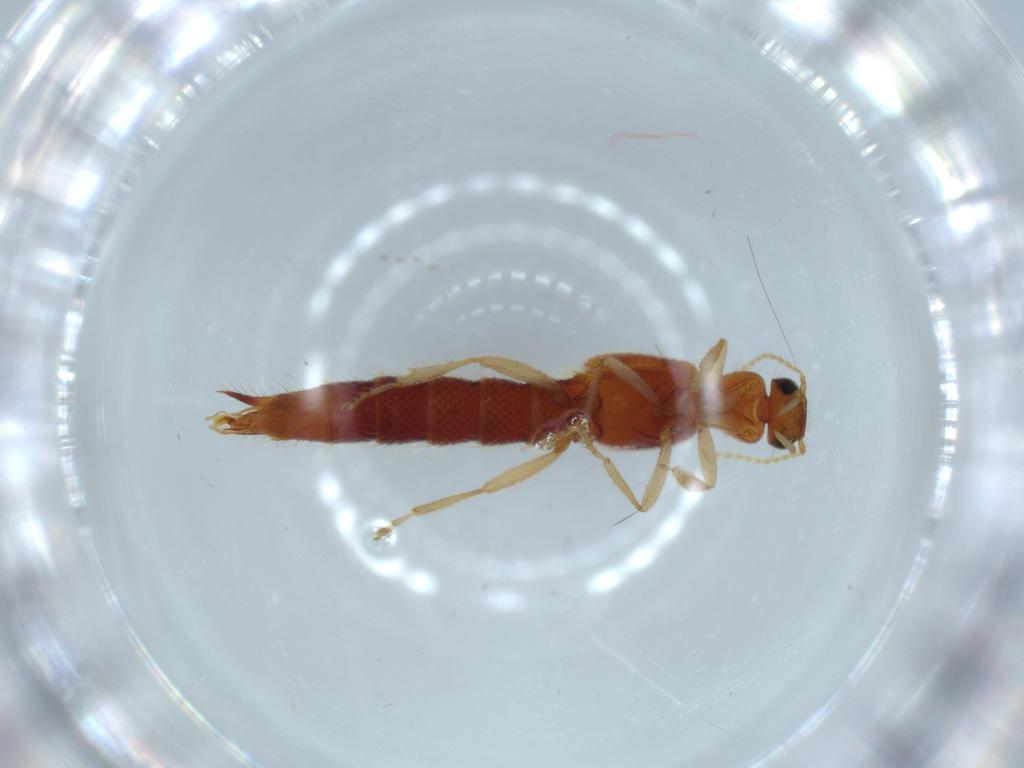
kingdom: Animalia
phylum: Arthropoda
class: Insecta
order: Coleoptera
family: Staphylinidae
